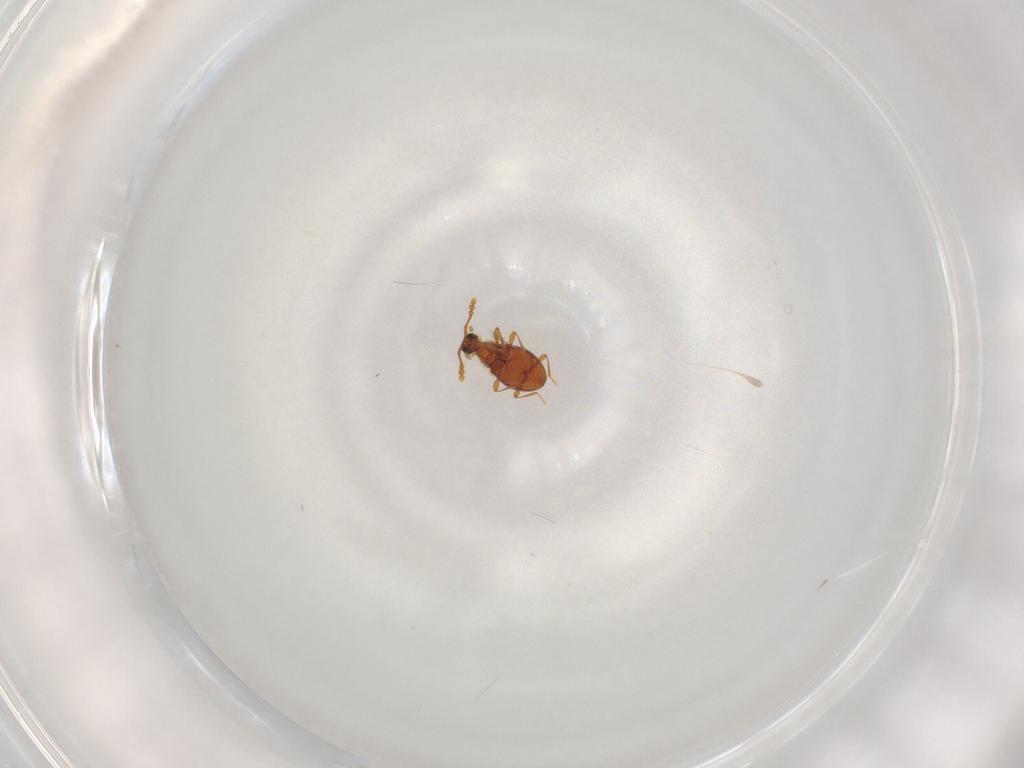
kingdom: Animalia
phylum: Arthropoda
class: Insecta
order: Coleoptera
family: Staphylinidae
